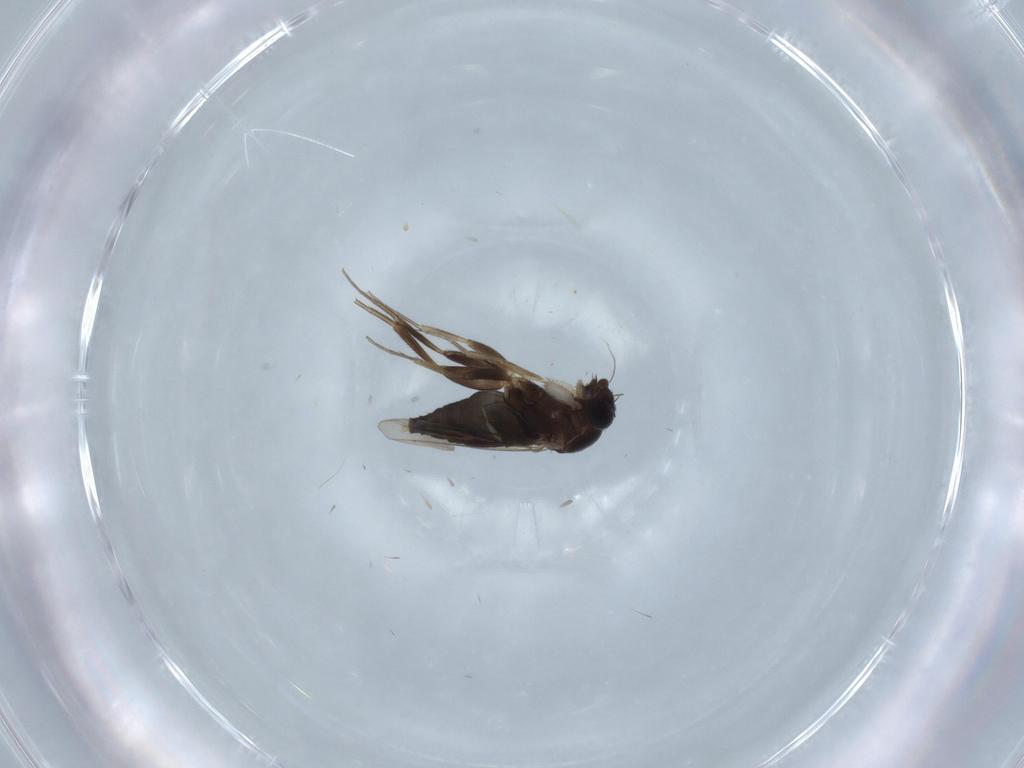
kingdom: Animalia
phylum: Arthropoda
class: Insecta
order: Diptera
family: Phoridae
